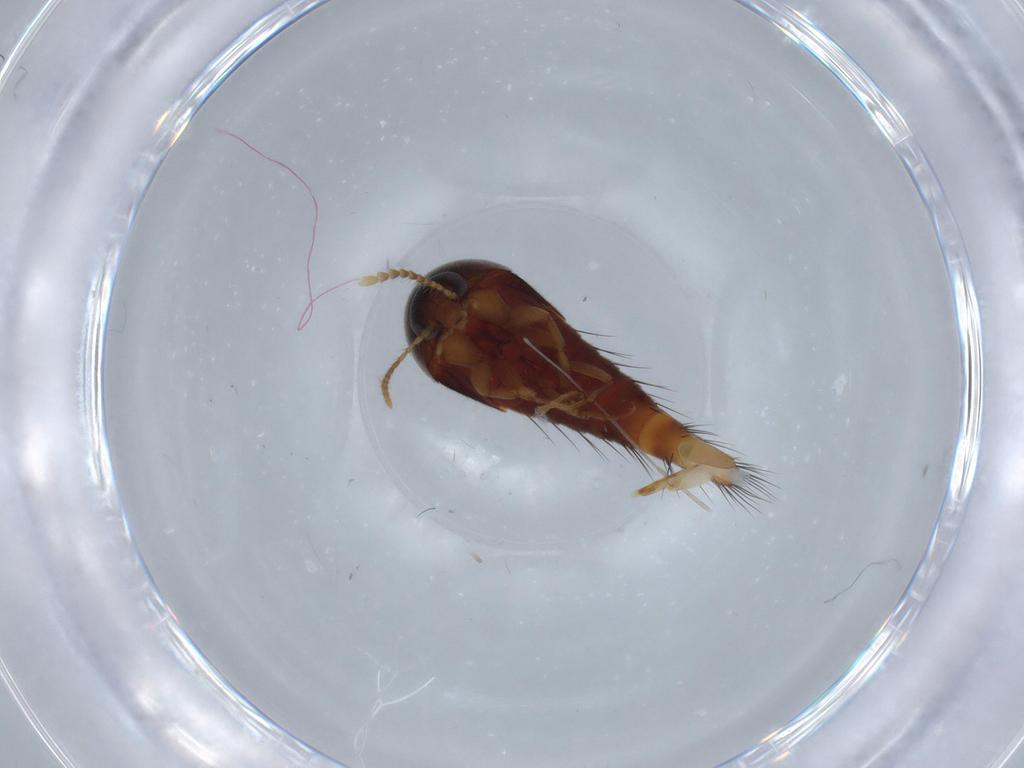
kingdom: Animalia
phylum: Arthropoda
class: Insecta
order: Coleoptera
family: Staphylinidae
